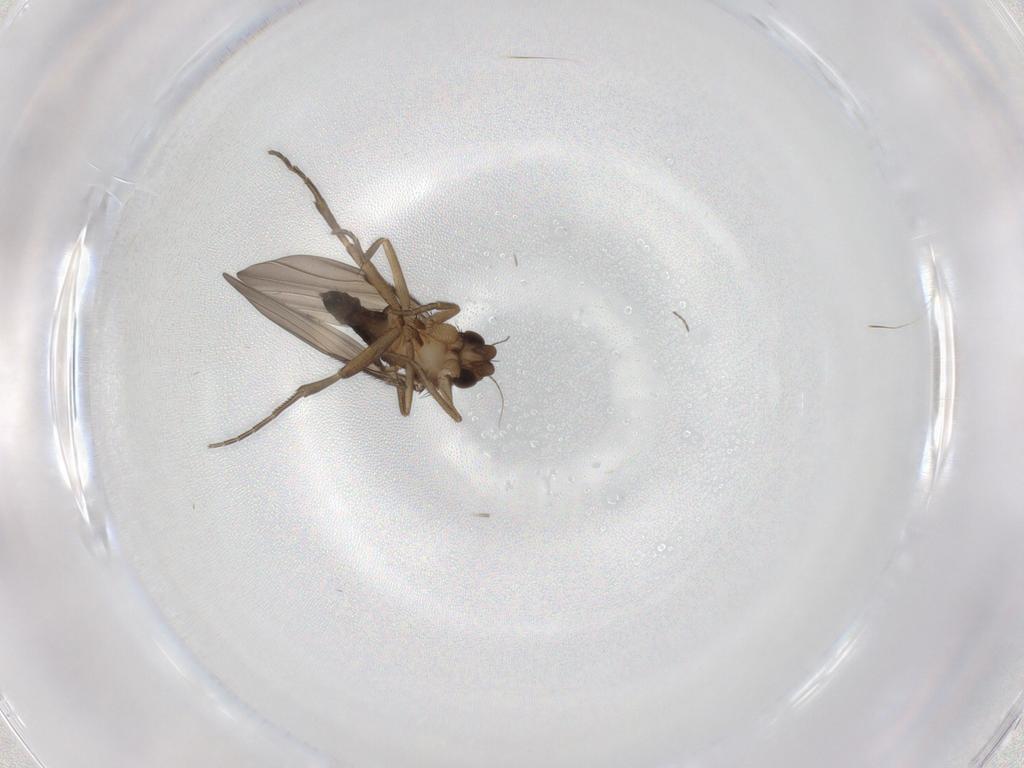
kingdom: Animalia
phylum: Arthropoda
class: Insecta
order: Diptera
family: Phoridae
